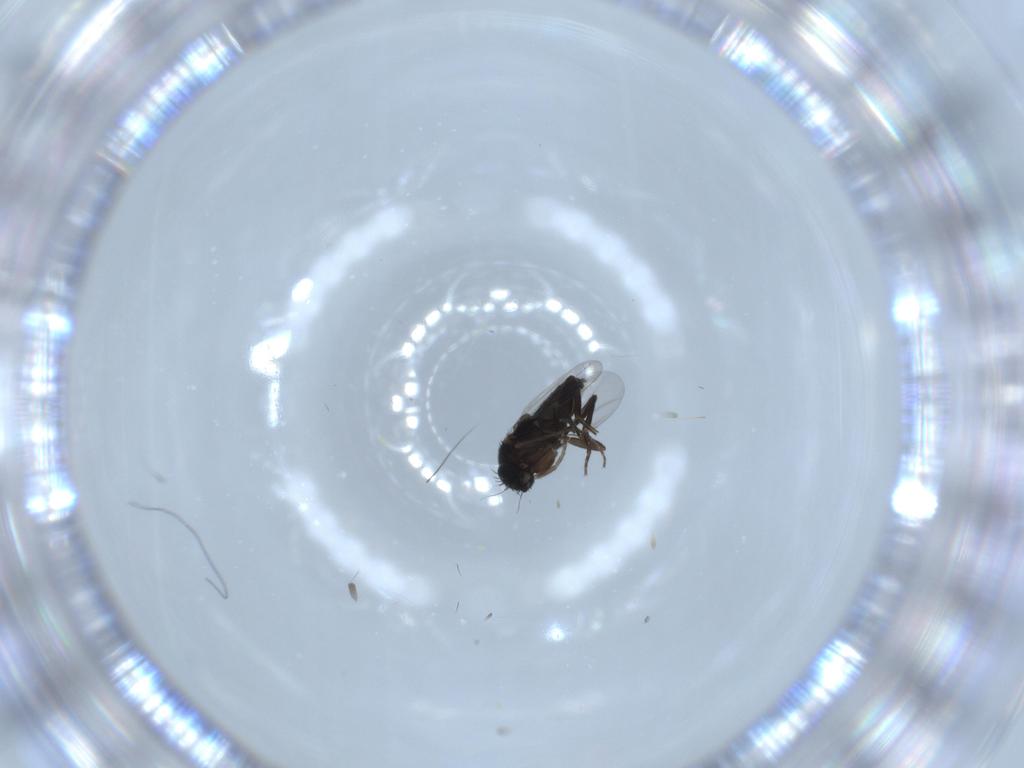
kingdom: Animalia
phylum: Arthropoda
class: Insecta
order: Diptera
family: Phoridae
